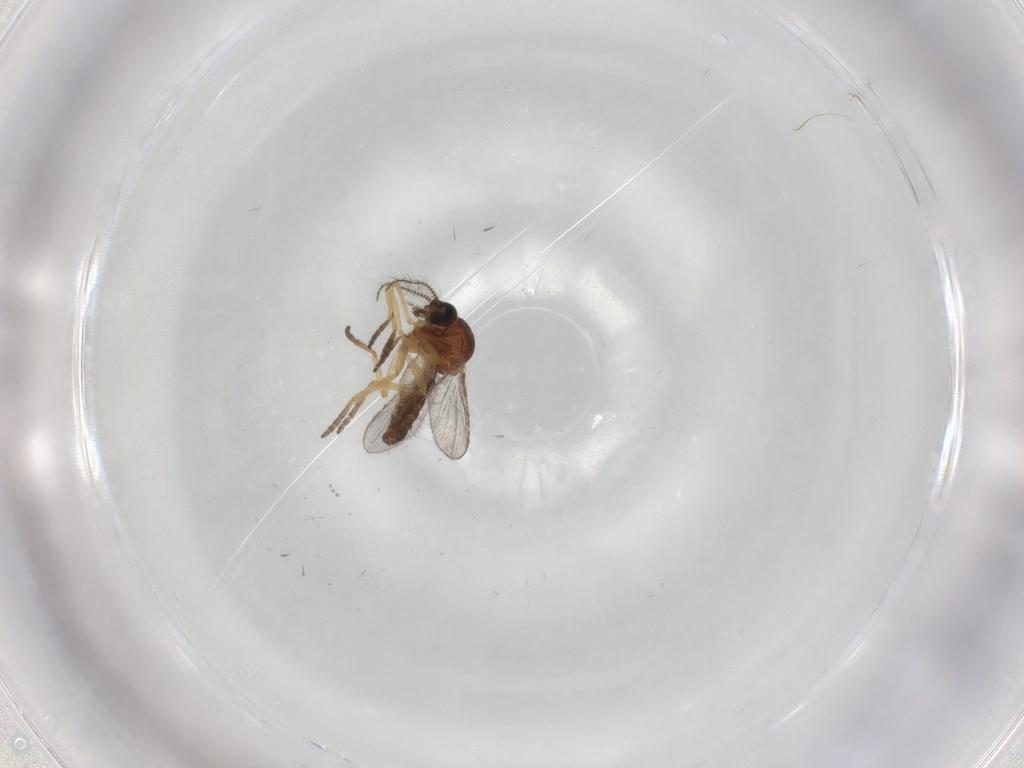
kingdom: Animalia
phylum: Arthropoda
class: Insecta
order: Diptera
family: Ceratopogonidae
